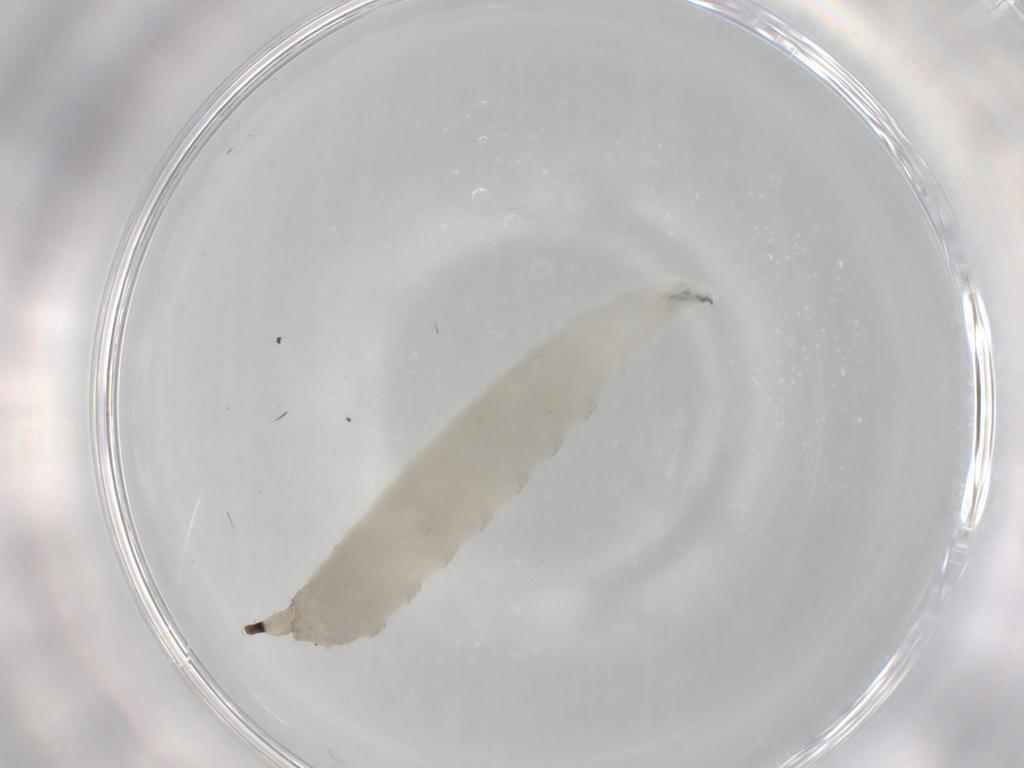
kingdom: Animalia
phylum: Arthropoda
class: Insecta
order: Diptera
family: Drosophilidae
